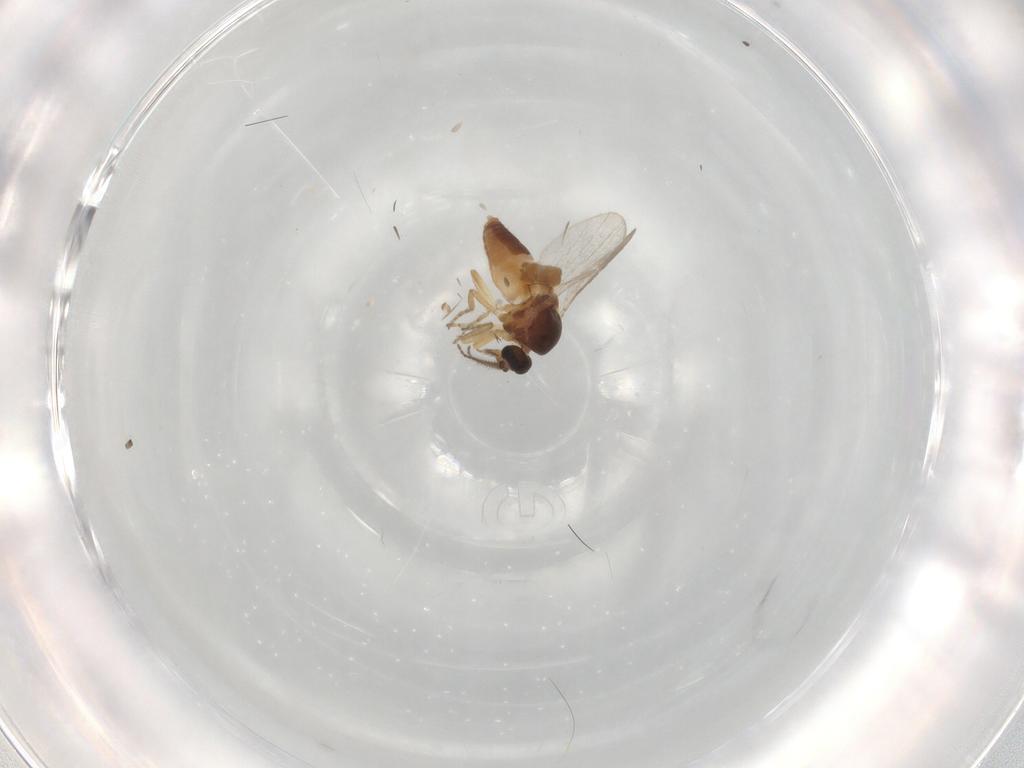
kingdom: Animalia
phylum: Arthropoda
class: Insecta
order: Diptera
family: Ceratopogonidae
